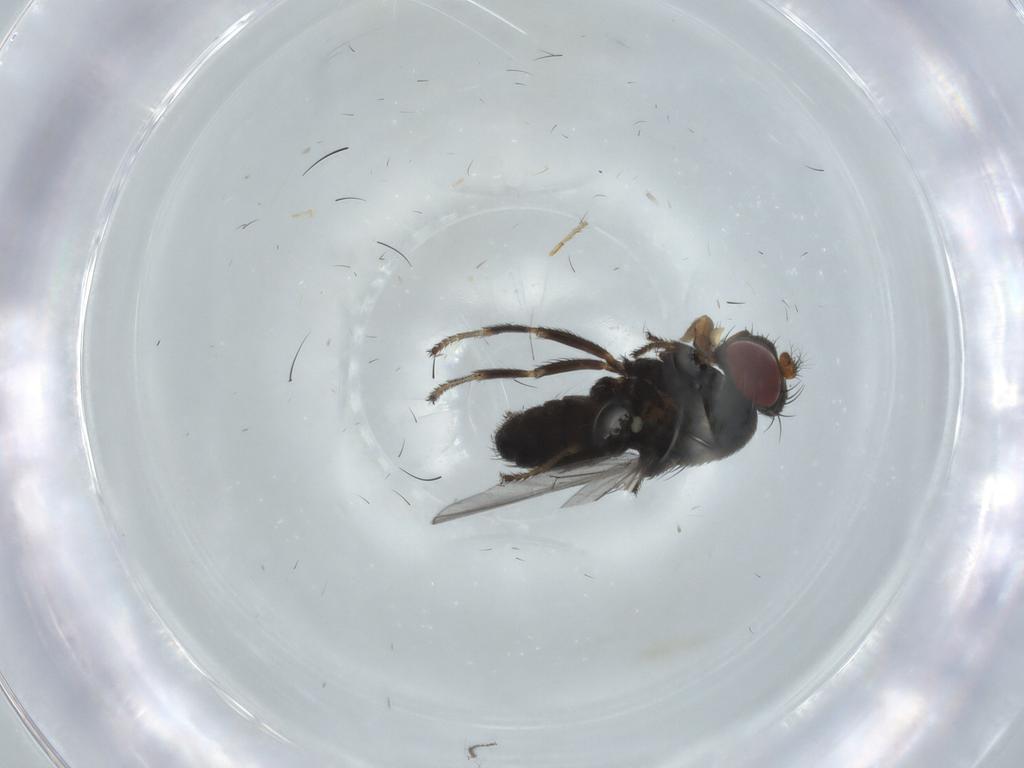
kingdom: Animalia
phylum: Arthropoda
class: Insecta
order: Diptera
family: Ephydridae
